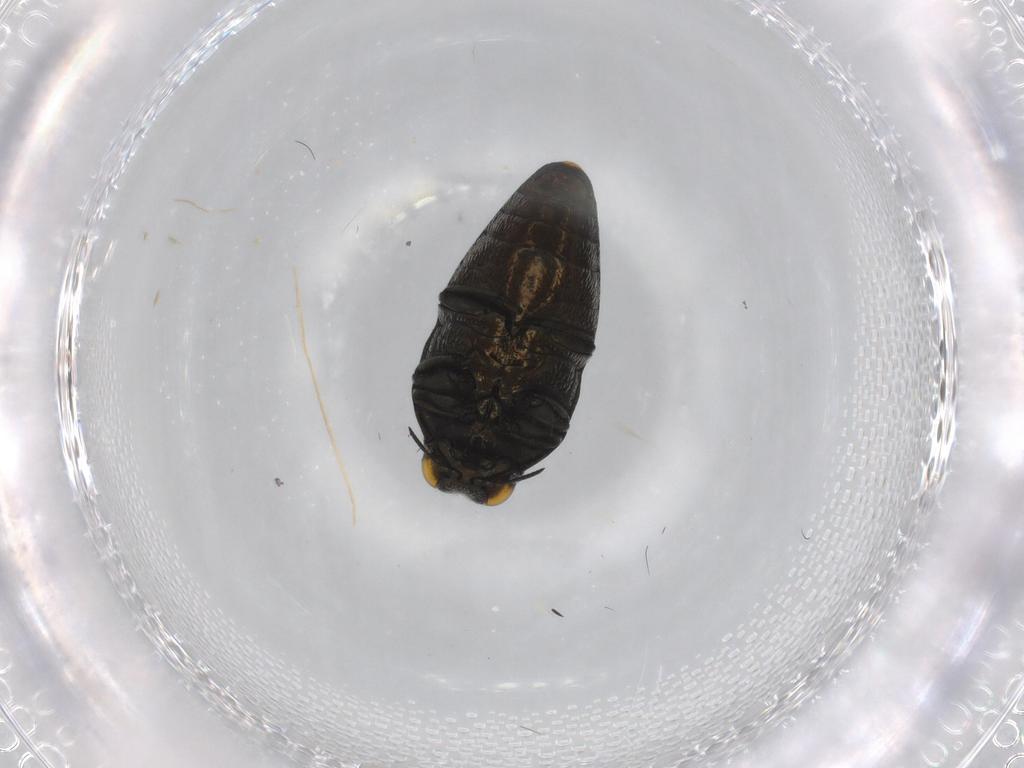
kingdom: Animalia
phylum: Arthropoda
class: Insecta
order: Coleoptera
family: Buprestidae
